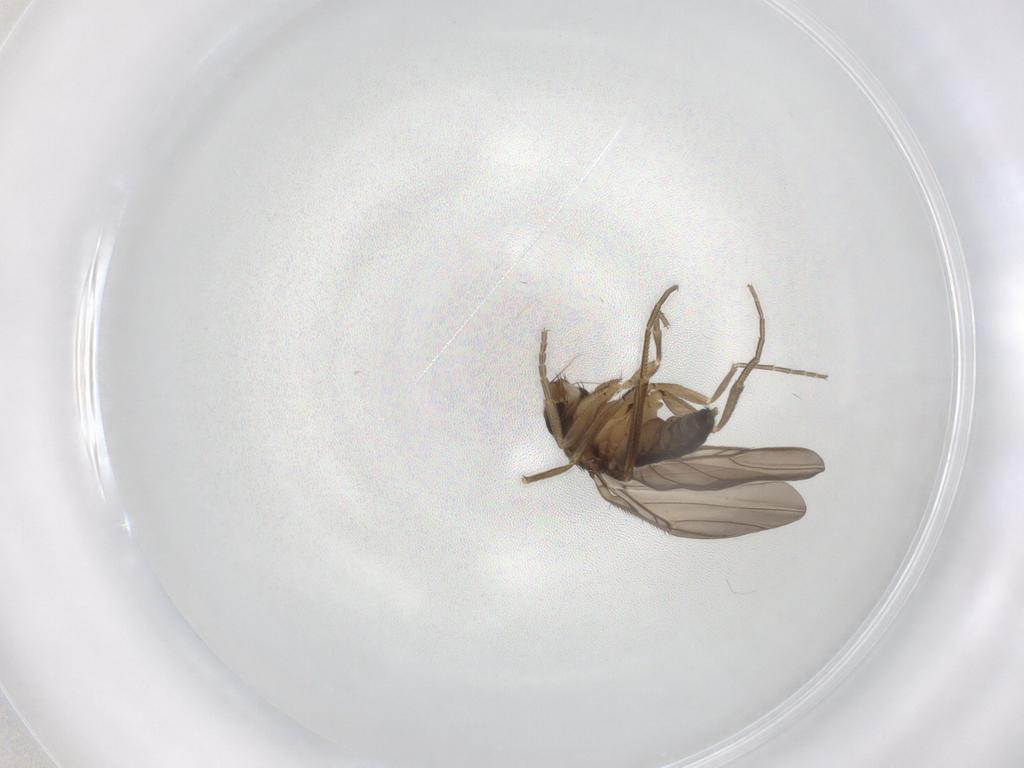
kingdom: Animalia
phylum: Arthropoda
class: Insecta
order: Diptera
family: Phoridae
